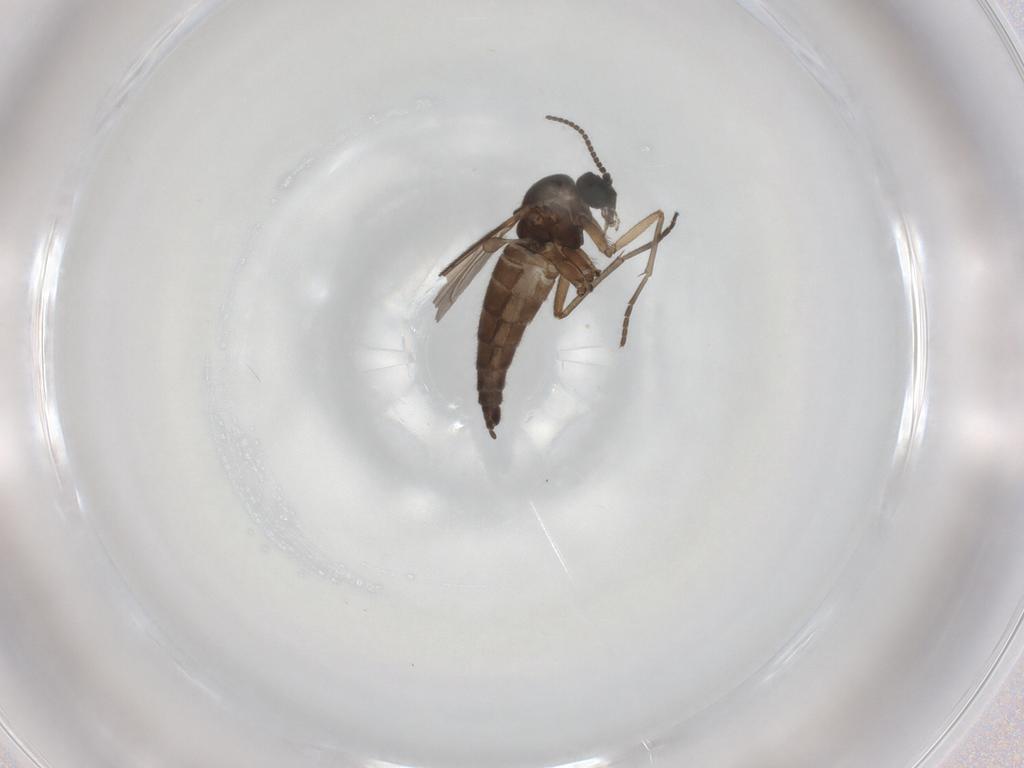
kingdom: Animalia
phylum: Arthropoda
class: Insecta
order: Diptera
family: Sciaridae
